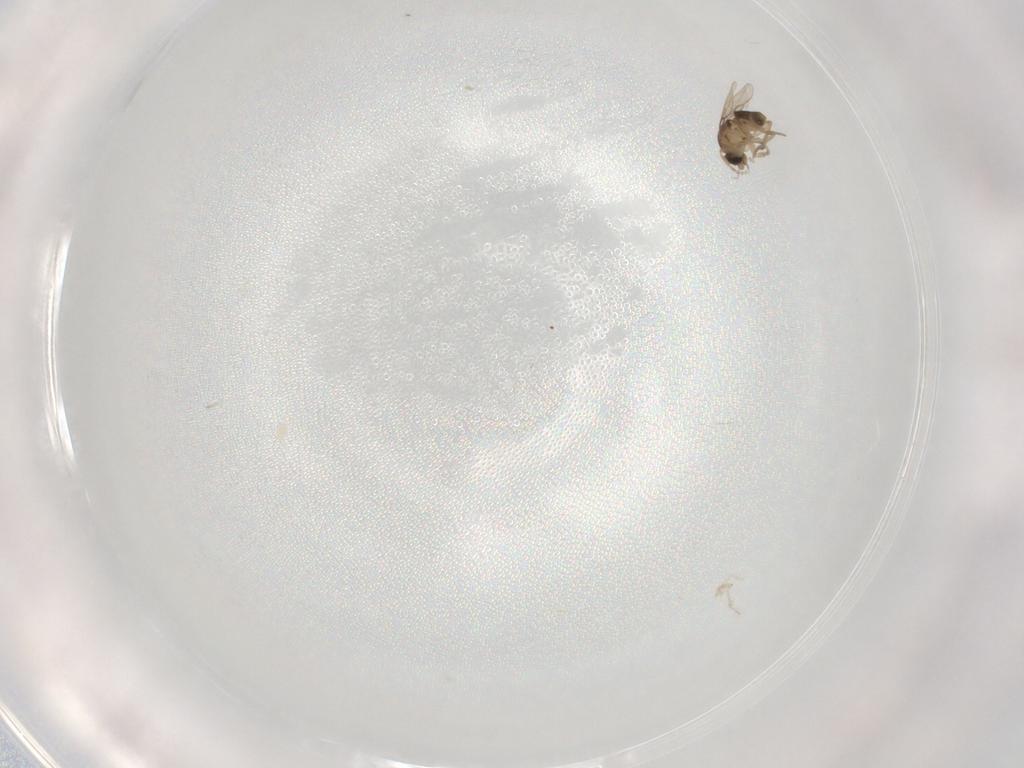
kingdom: Animalia
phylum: Arthropoda
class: Insecta
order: Diptera
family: Phoridae
